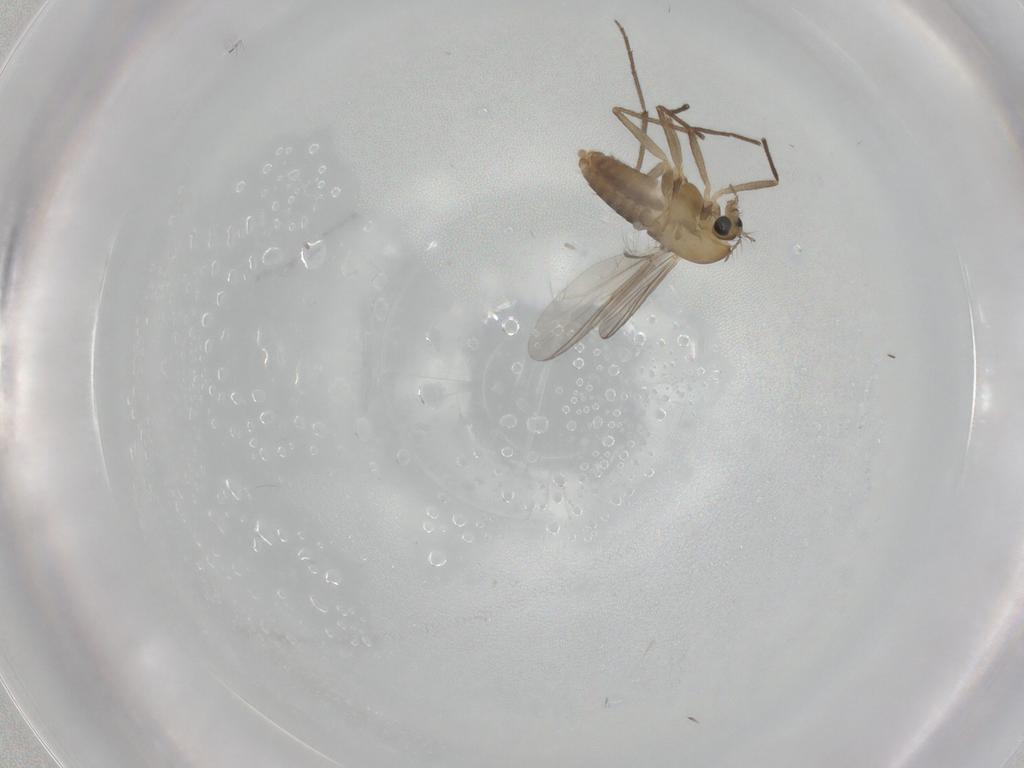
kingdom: Animalia
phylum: Arthropoda
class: Insecta
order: Diptera
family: Chironomidae
